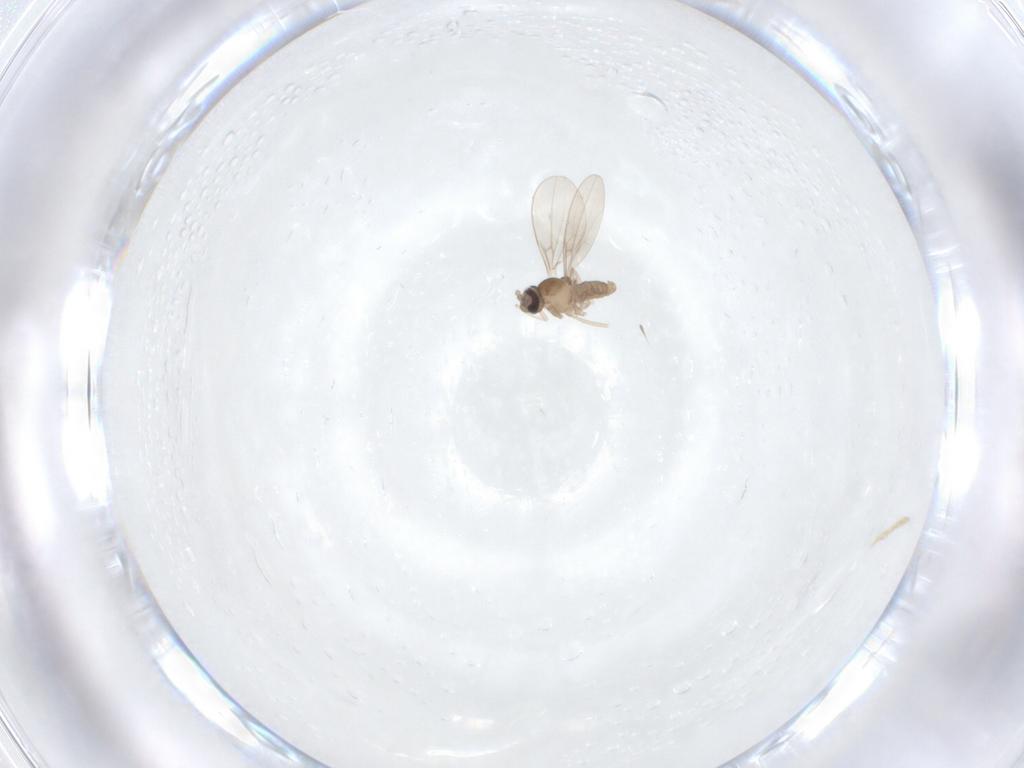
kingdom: Animalia
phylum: Arthropoda
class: Insecta
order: Diptera
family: Cecidomyiidae
